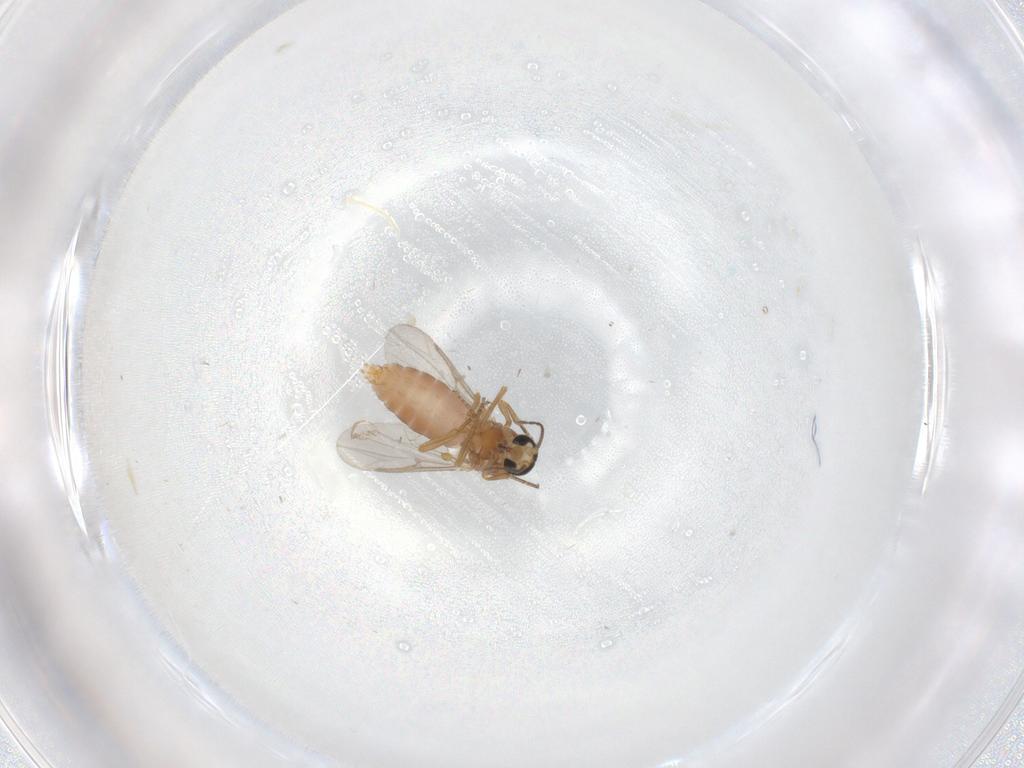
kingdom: Animalia
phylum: Arthropoda
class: Insecta
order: Diptera
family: Ceratopogonidae
